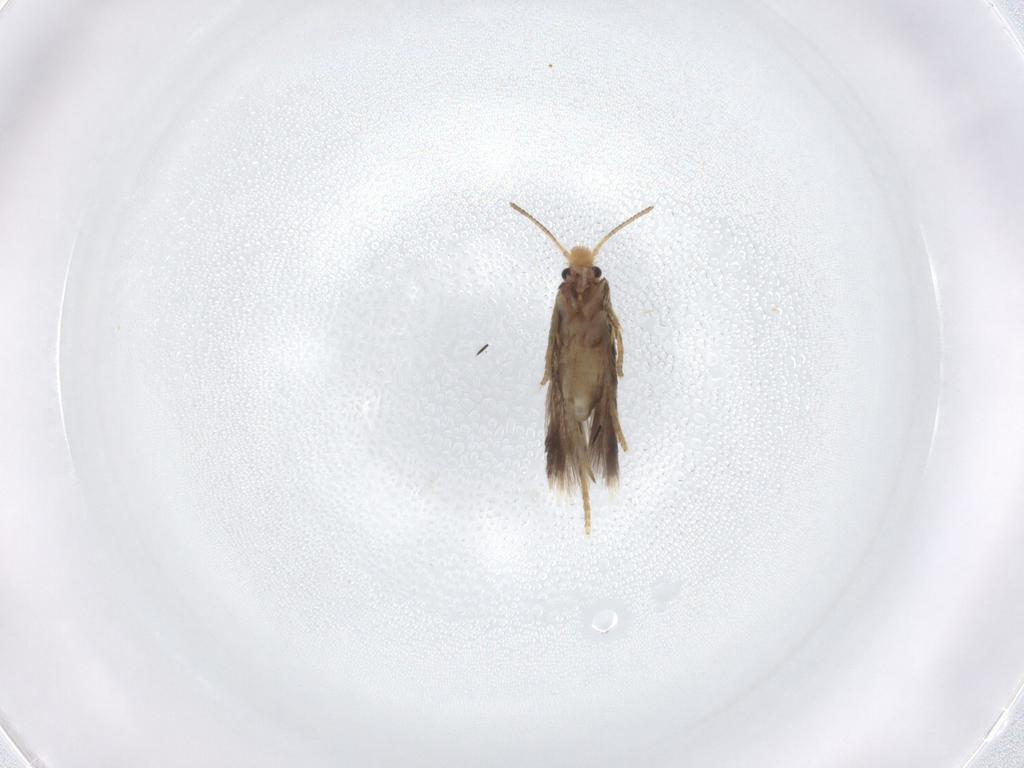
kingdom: Animalia
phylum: Arthropoda
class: Insecta
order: Lepidoptera
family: Nepticulidae
